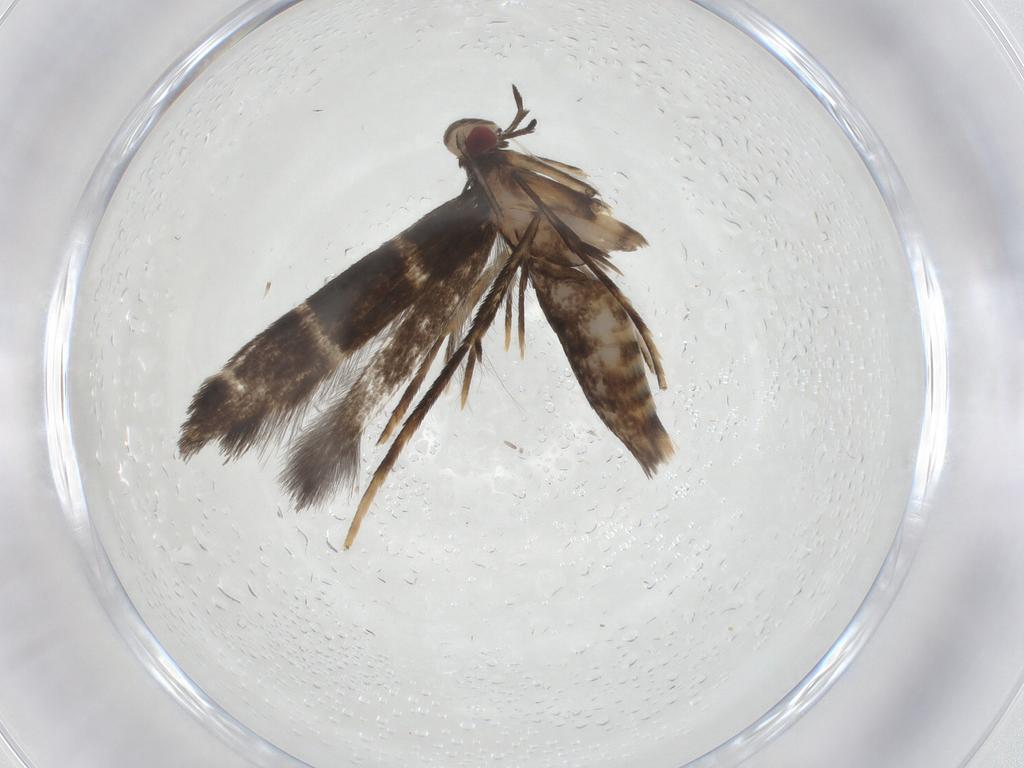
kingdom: Animalia
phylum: Arthropoda
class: Insecta
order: Lepidoptera
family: Gracillariidae
